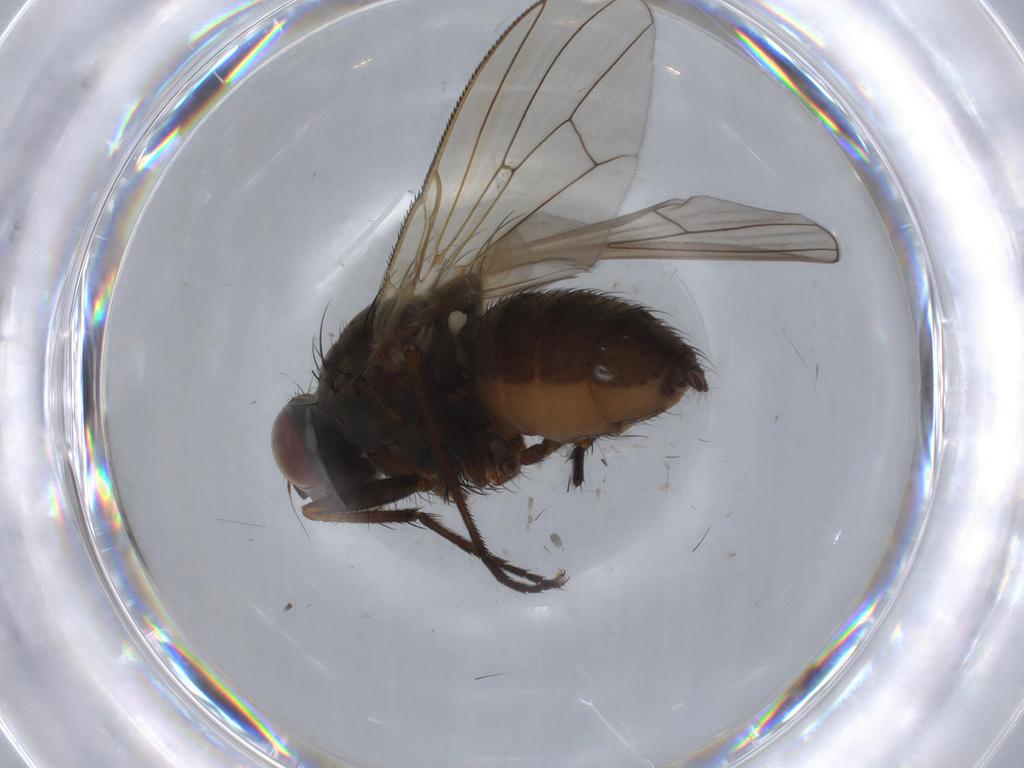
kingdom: Animalia
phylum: Arthropoda
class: Insecta
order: Diptera
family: Anthomyiidae
